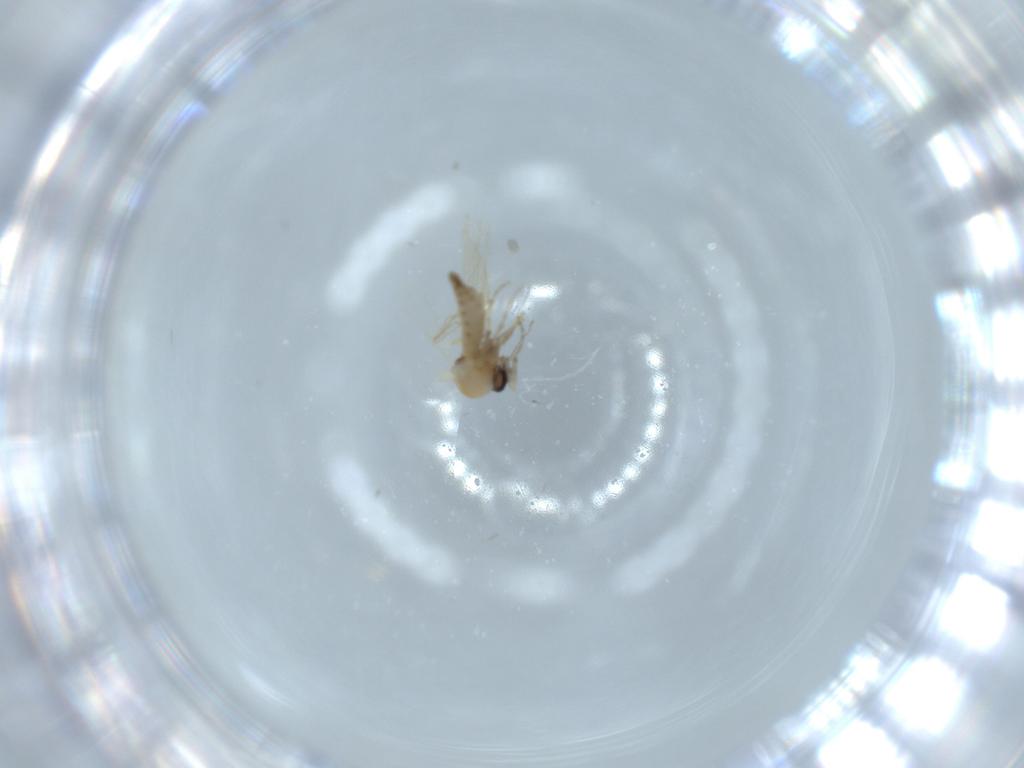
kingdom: Animalia
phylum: Arthropoda
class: Insecta
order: Diptera
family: Ceratopogonidae
